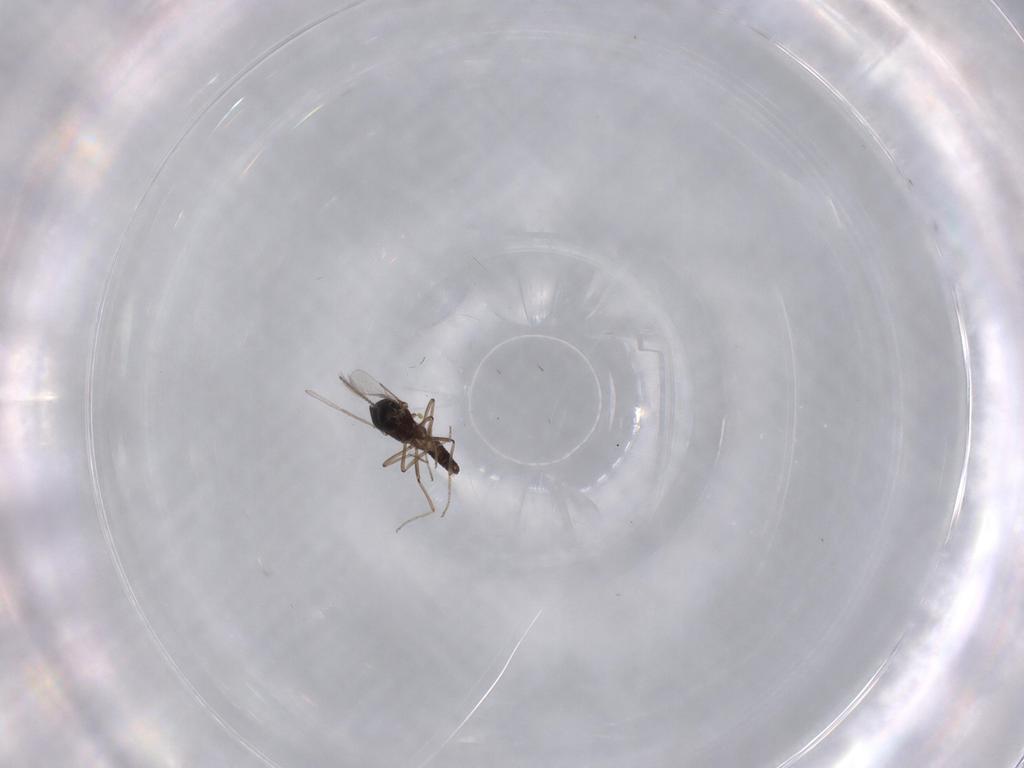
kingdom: Animalia
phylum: Arthropoda
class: Insecta
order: Diptera
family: Ceratopogonidae
